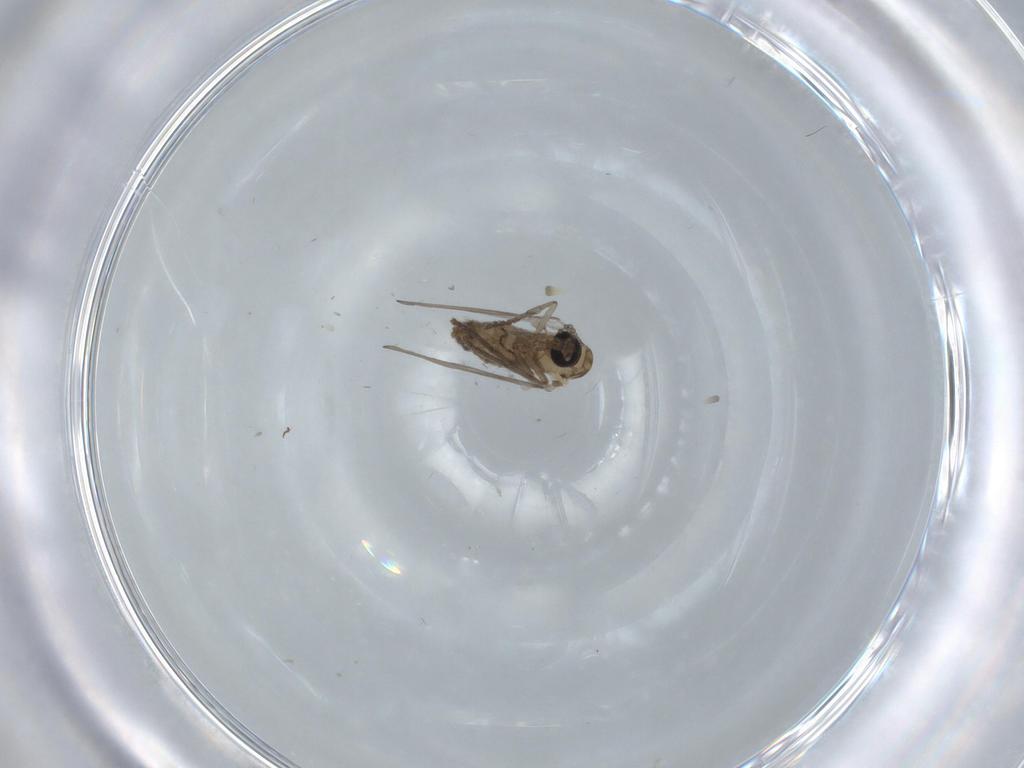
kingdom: Animalia
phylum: Arthropoda
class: Insecta
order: Diptera
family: Psychodidae
